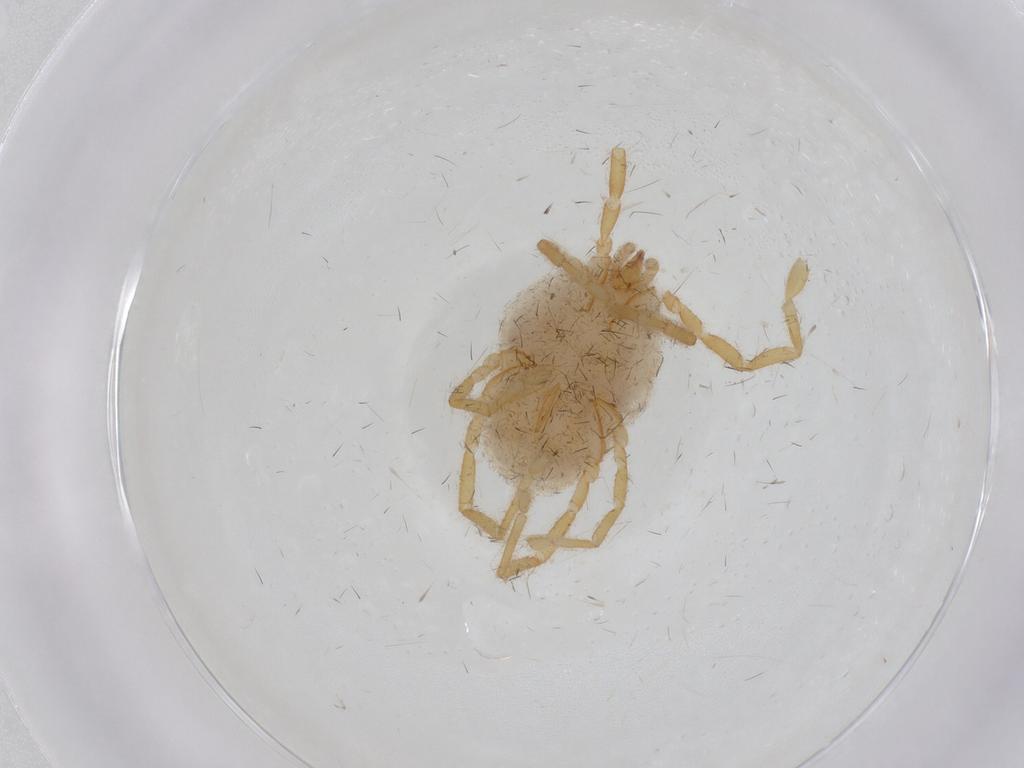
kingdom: Animalia
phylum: Arthropoda
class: Arachnida
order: Trombidiformes
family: Erythraeidae
